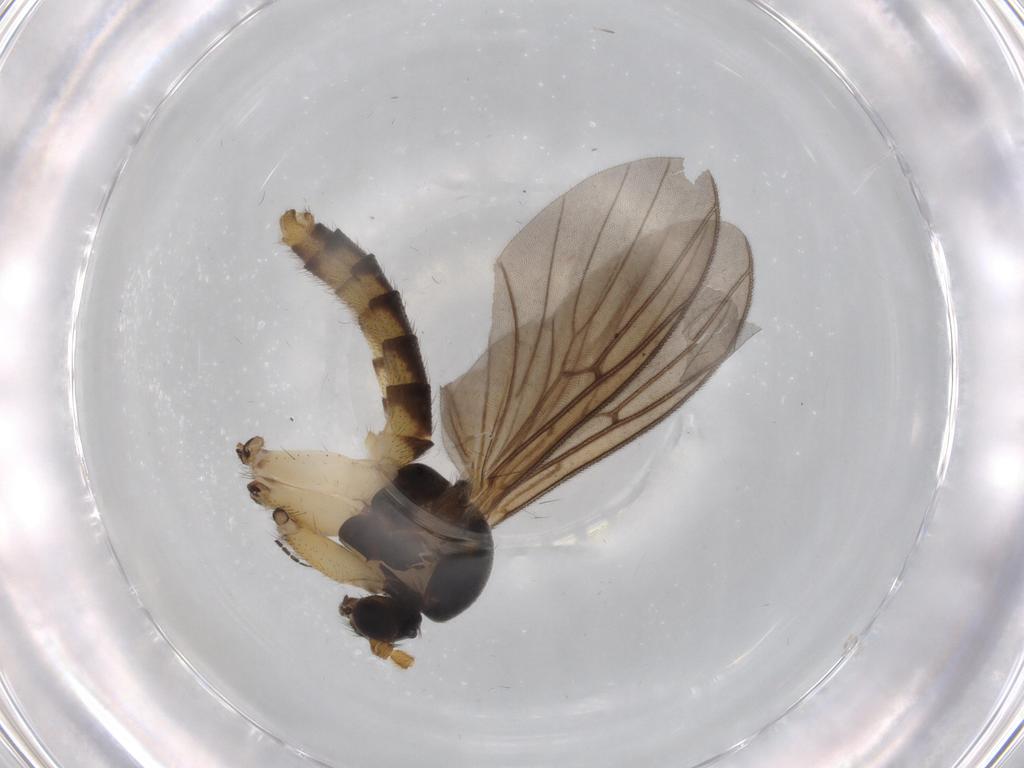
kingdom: Animalia
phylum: Arthropoda
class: Insecta
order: Diptera
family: Mycetophilidae
